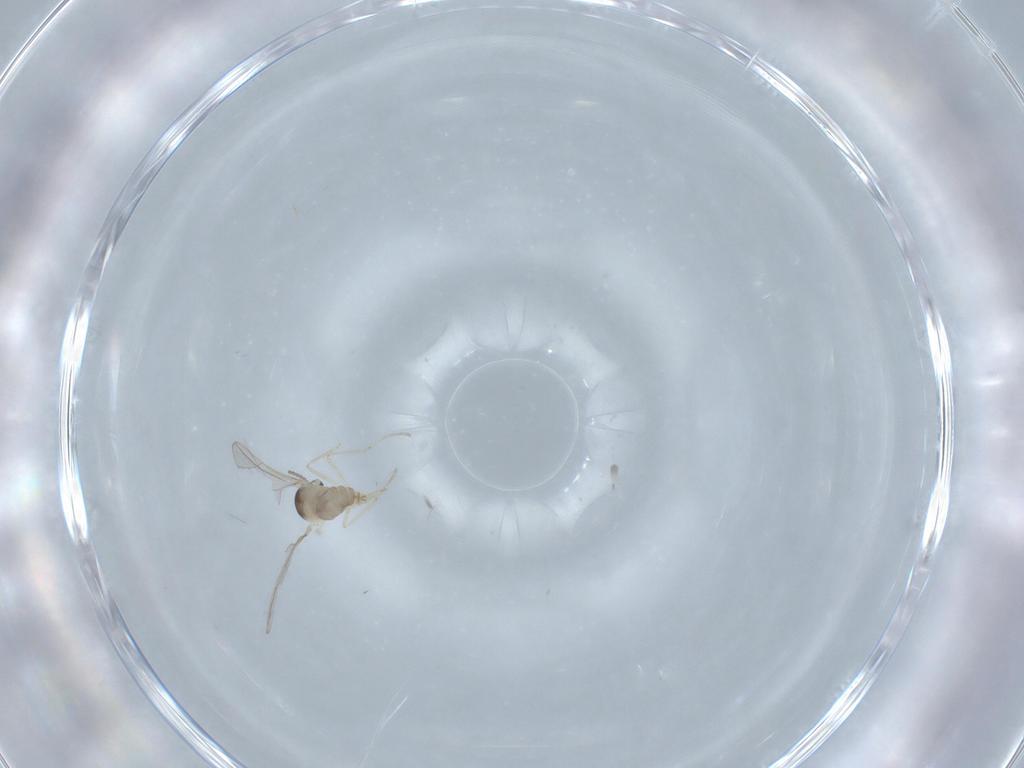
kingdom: Animalia
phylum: Arthropoda
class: Insecta
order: Diptera
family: Cecidomyiidae
